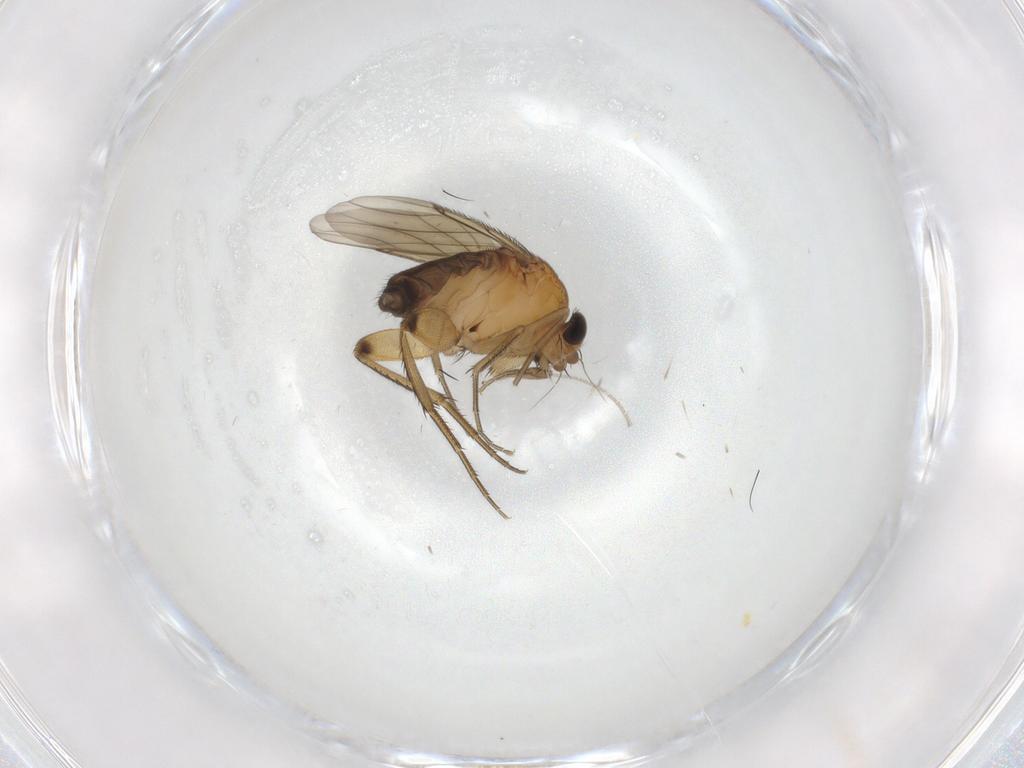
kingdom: Animalia
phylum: Arthropoda
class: Insecta
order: Diptera
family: Phoridae
